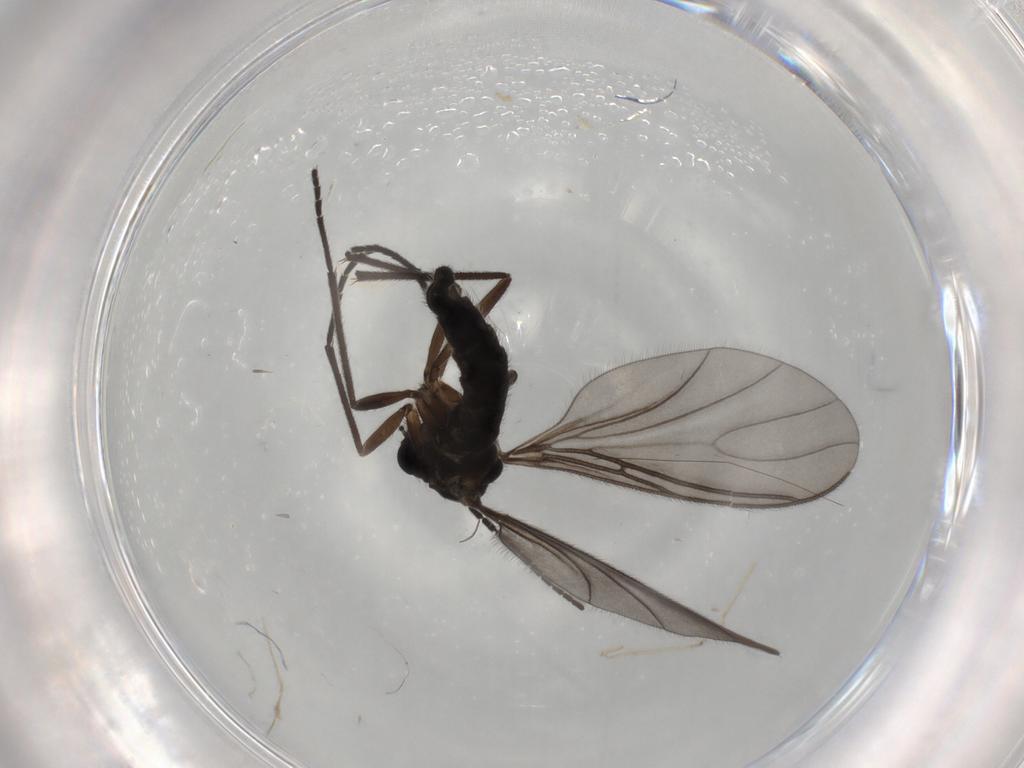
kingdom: Animalia
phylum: Arthropoda
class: Insecta
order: Diptera
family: Sciaridae
